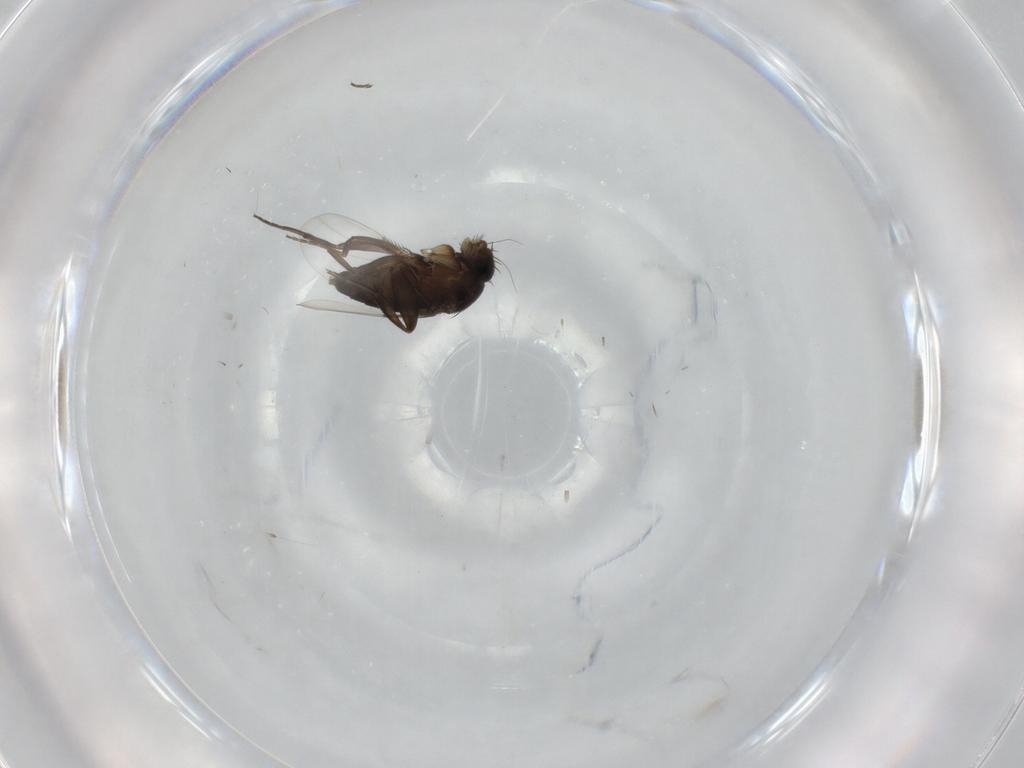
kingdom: Animalia
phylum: Arthropoda
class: Insecta
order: Diptera
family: Phoridae
